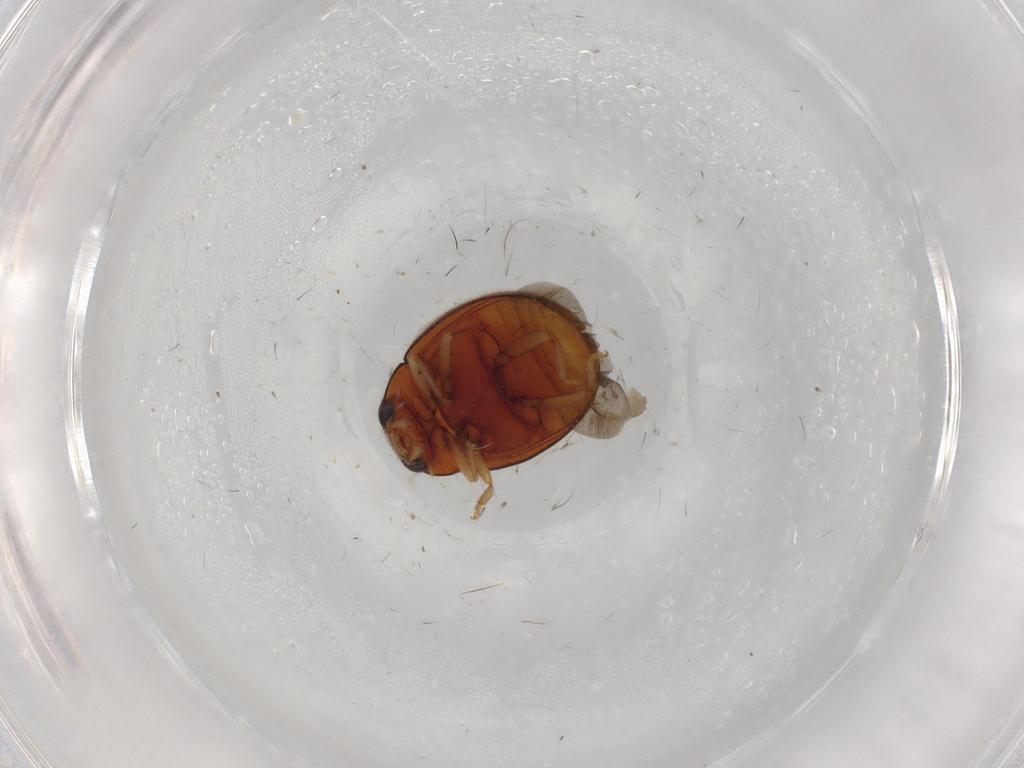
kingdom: Animalia
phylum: Arthropoda
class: Insecta
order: Coleoptera
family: Coccinellidae
